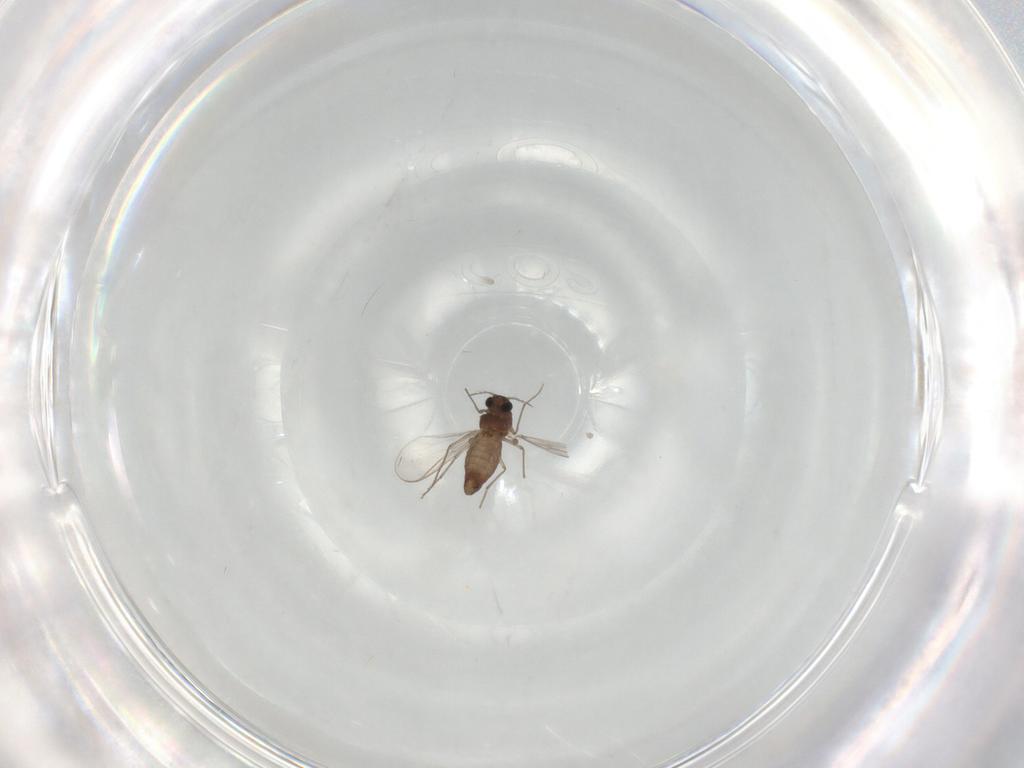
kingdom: Animalia
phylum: Arthropoda
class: Insecta
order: Diptera
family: Chironomidae
